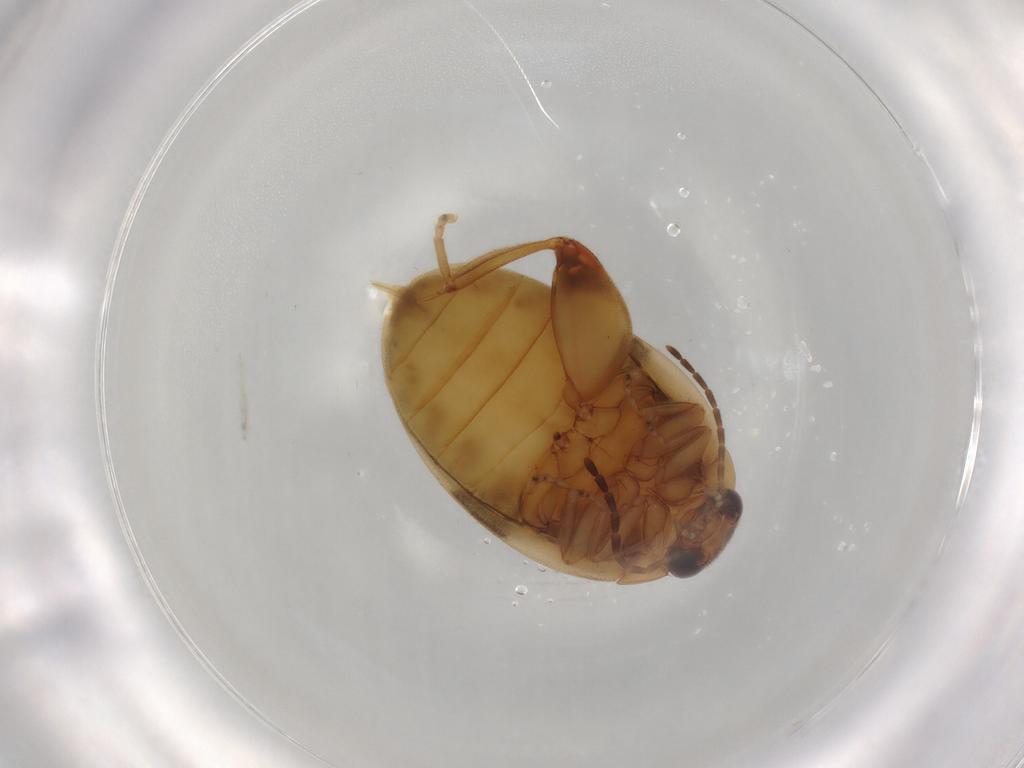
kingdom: Animalia
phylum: Arthropoda
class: Insecta
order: Coleoptera
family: Scirtidae
